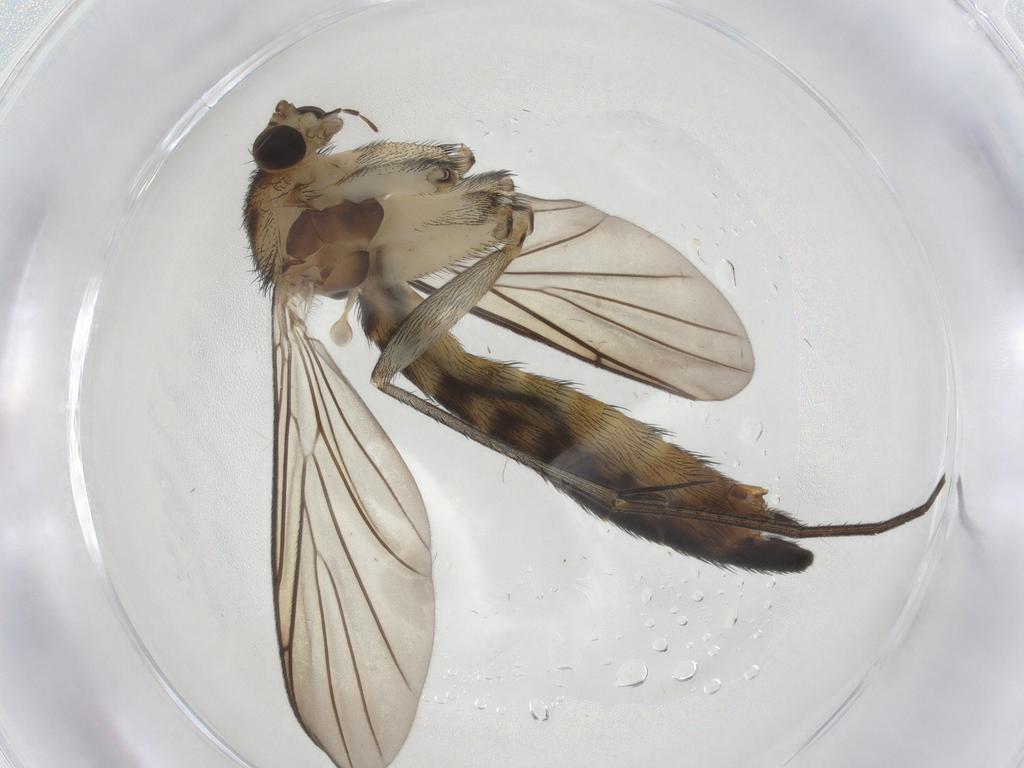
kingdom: Animalia
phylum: Arthropoda
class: Insecta
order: Diptera
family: Keroplatidae
